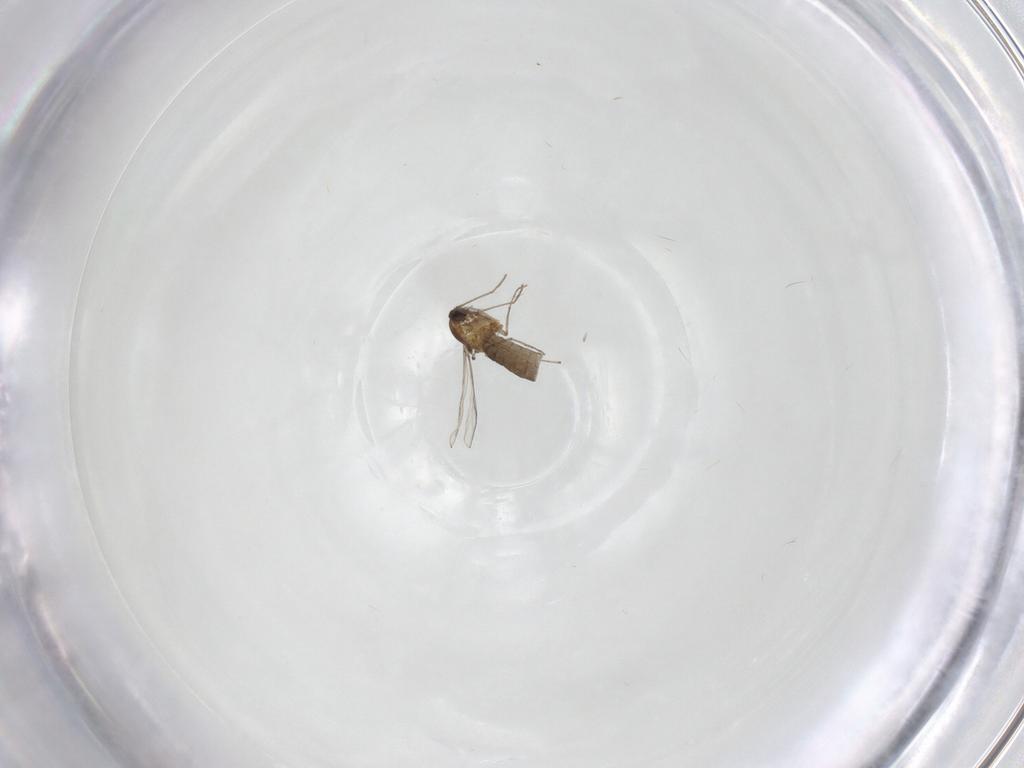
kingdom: Animalia
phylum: Arthropoda
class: Insecta
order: Diptera
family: Chironomidae
